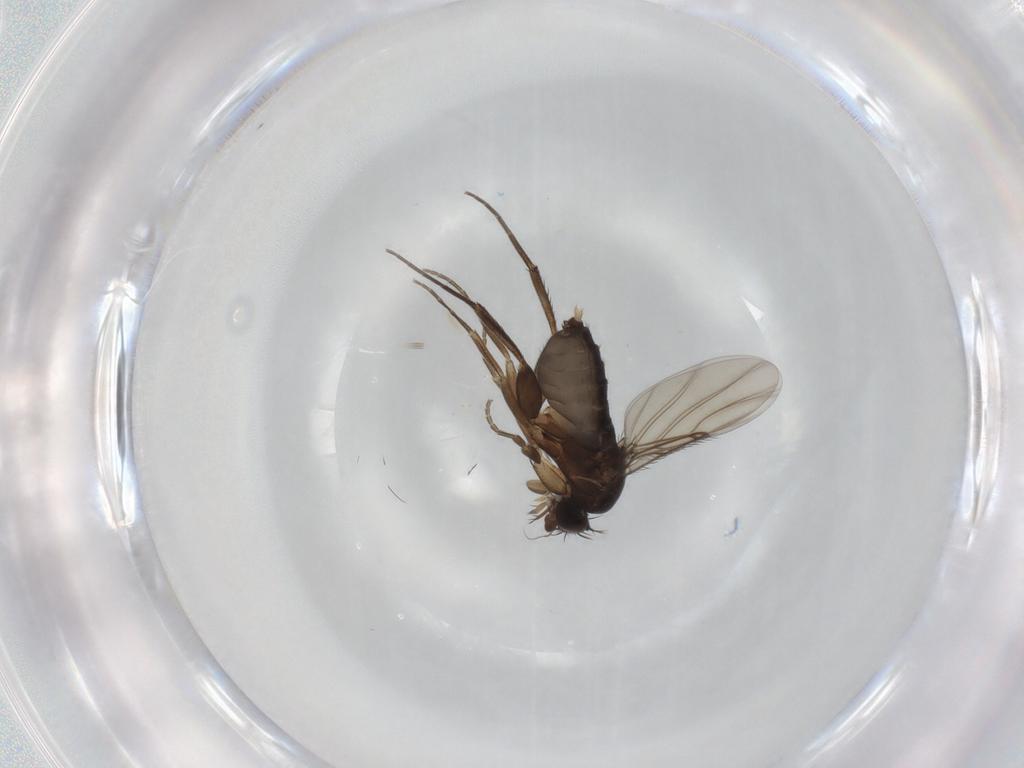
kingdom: Animalia
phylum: Arthropoda
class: Insecta
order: Diptera
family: Phoridae
